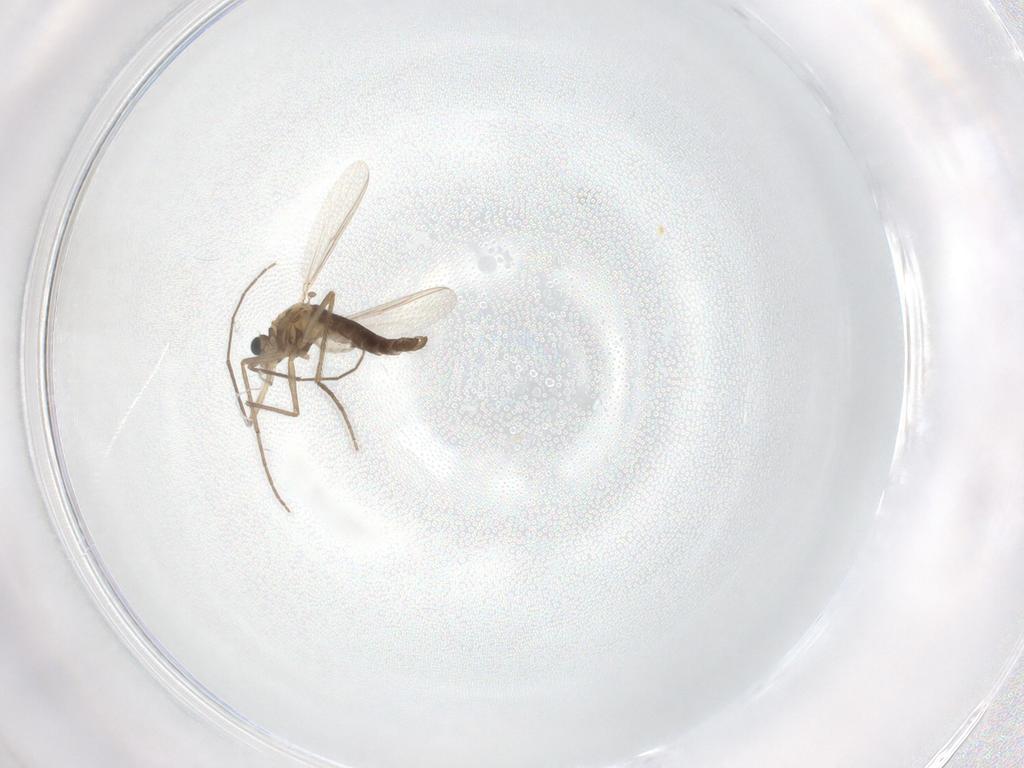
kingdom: Animalia
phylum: Arthropoda
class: Insecta
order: Diptera
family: Chironomidae
